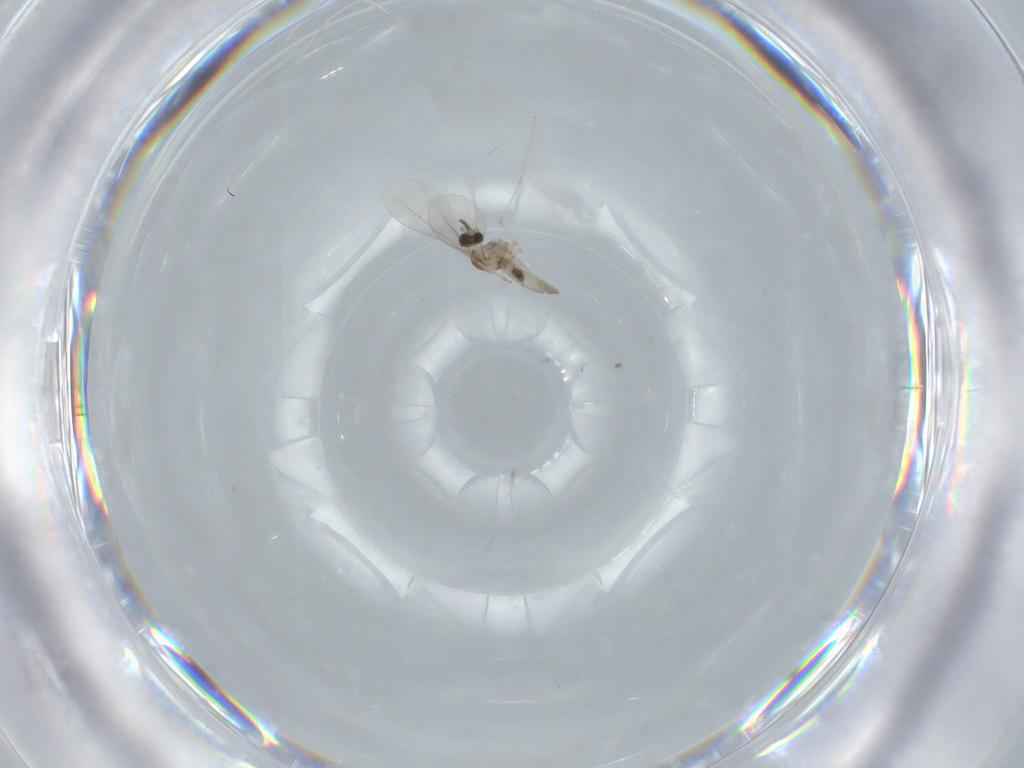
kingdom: Animalia
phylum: Arthropoda
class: Insecta
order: Diptera
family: Cecidomyiidae
